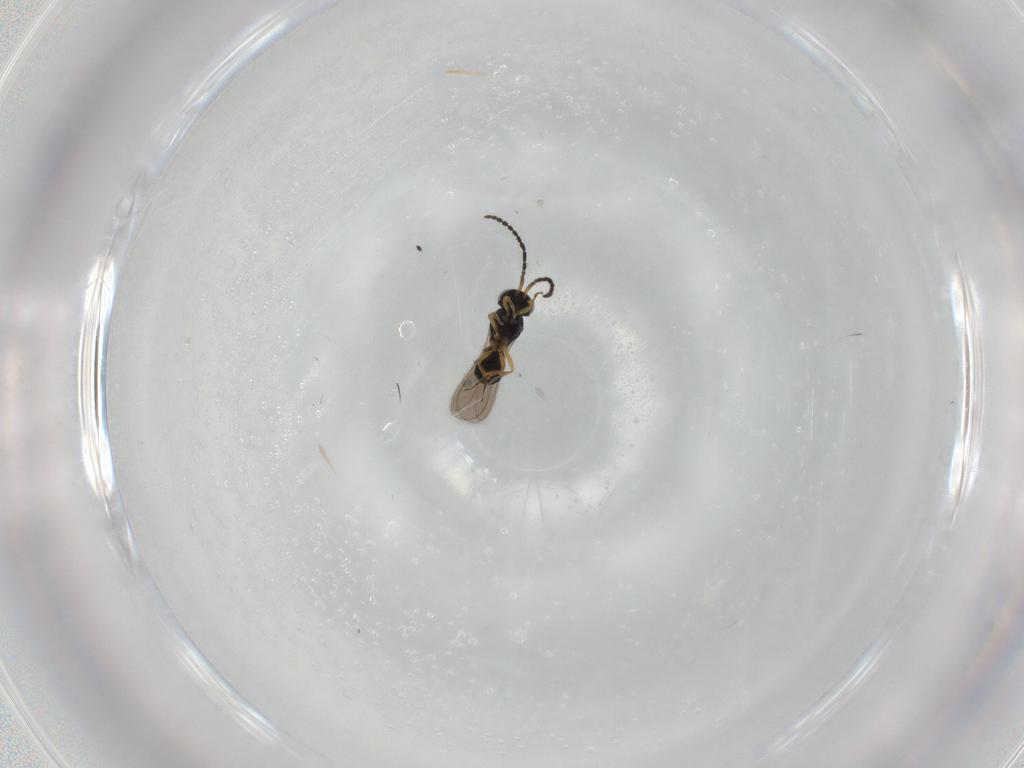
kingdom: Animalia
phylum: Arthropoda
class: Insecta
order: Hymenoptera
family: Scelionidae
